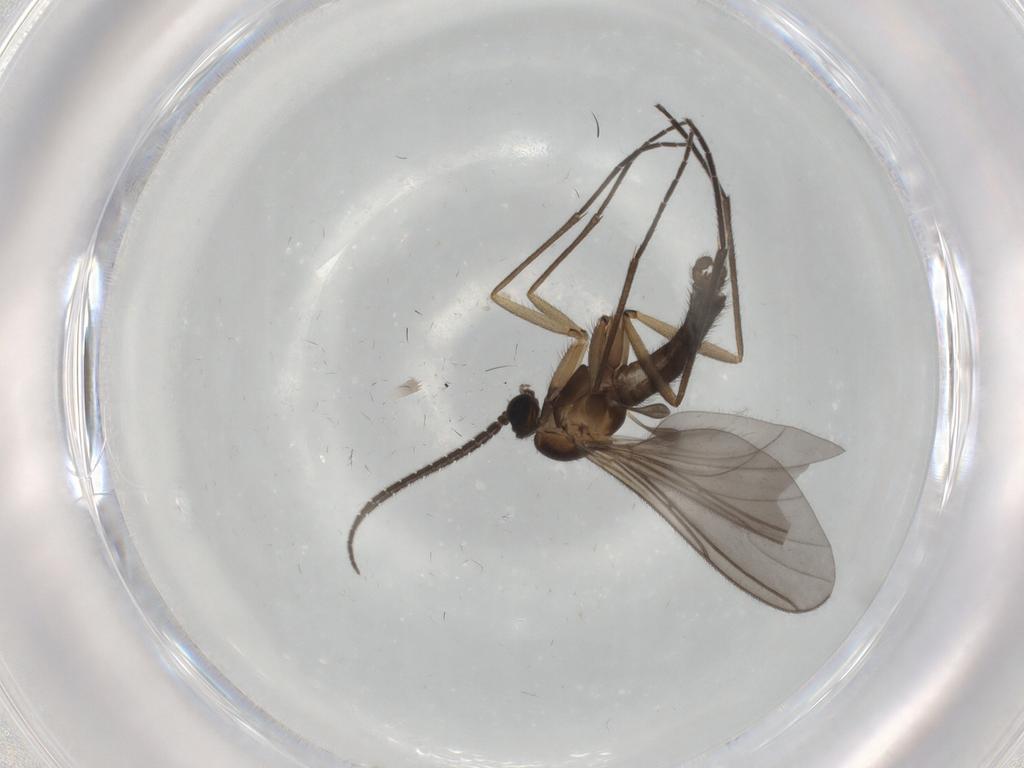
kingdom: Animalia
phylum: Arthropoda
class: Insecta
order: Diptera
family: Sciaridae
